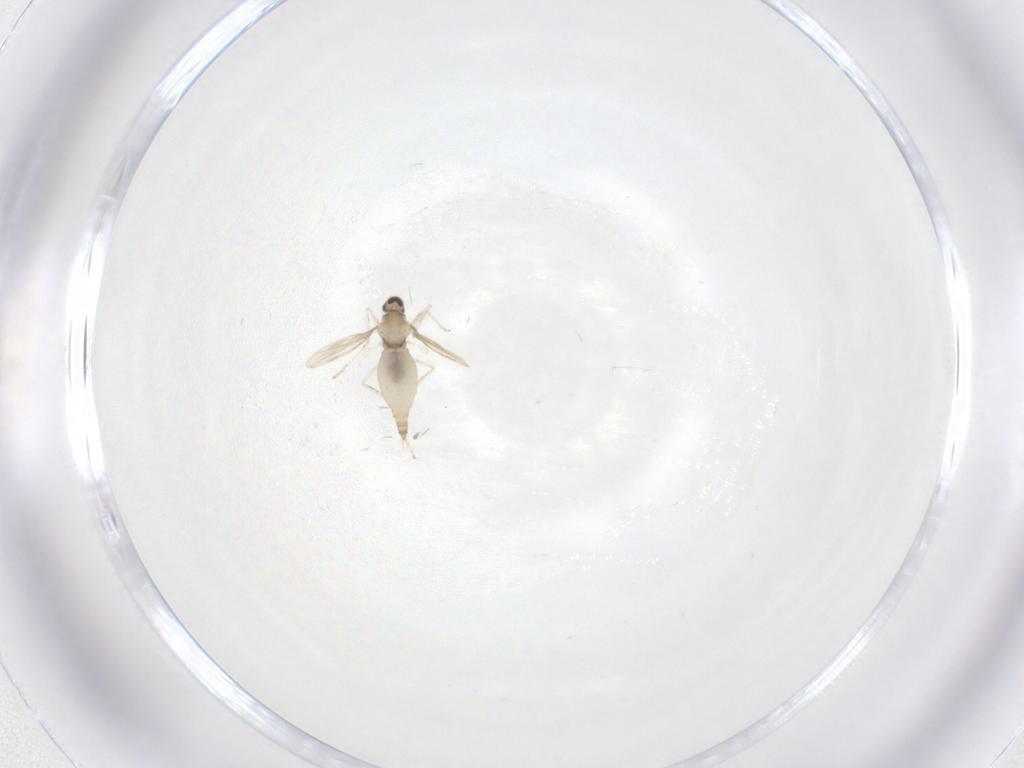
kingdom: Animalia
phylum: Arthropoda
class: Insecta
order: Diptera
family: Cecidomyiidae
